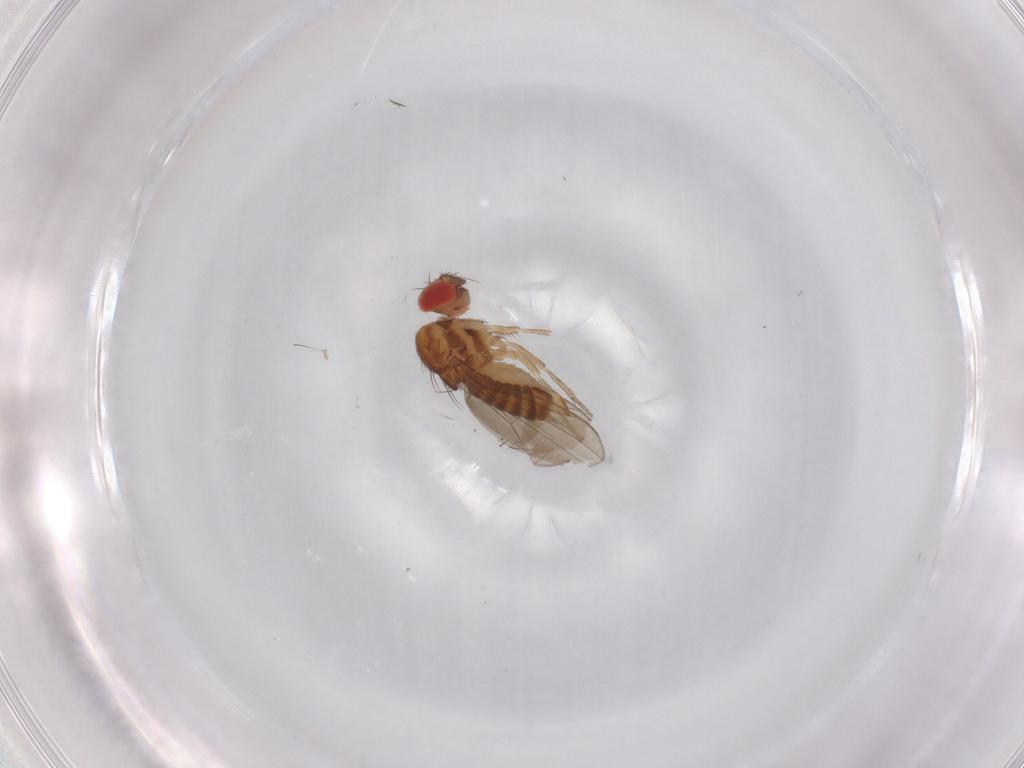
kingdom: Animalia
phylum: Arthropoda
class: Insecta
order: Diptera
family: Drosophilidae
